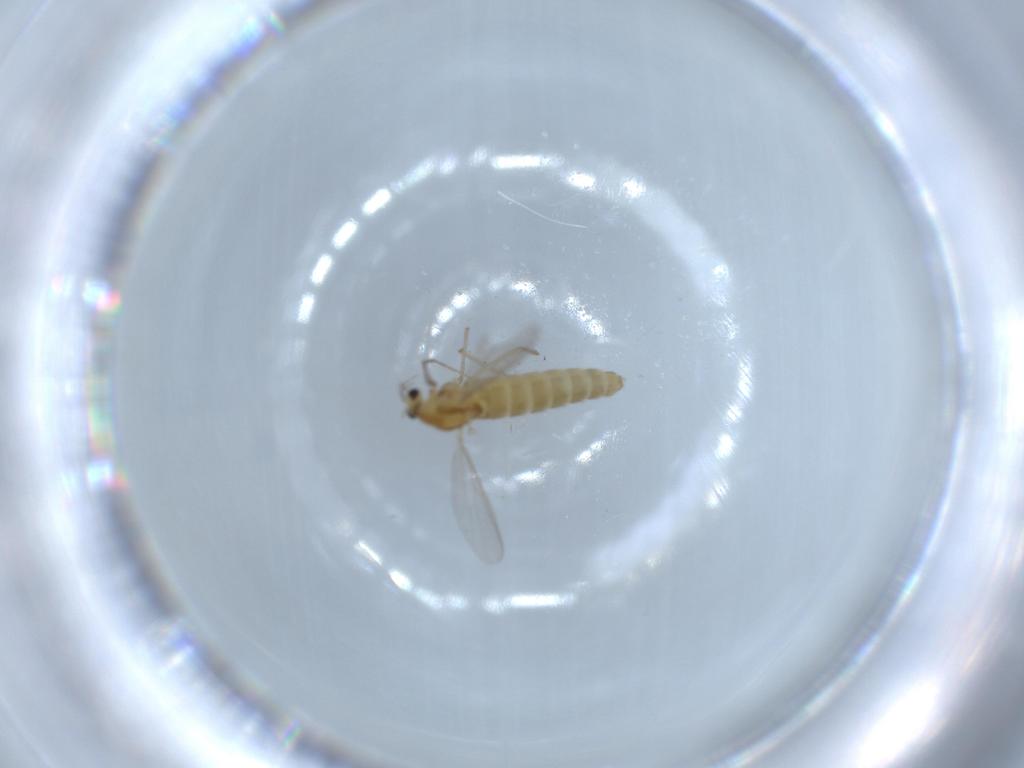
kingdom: Animalia
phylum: Arthropoda
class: Insecta
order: Diptera
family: Chironomidae
